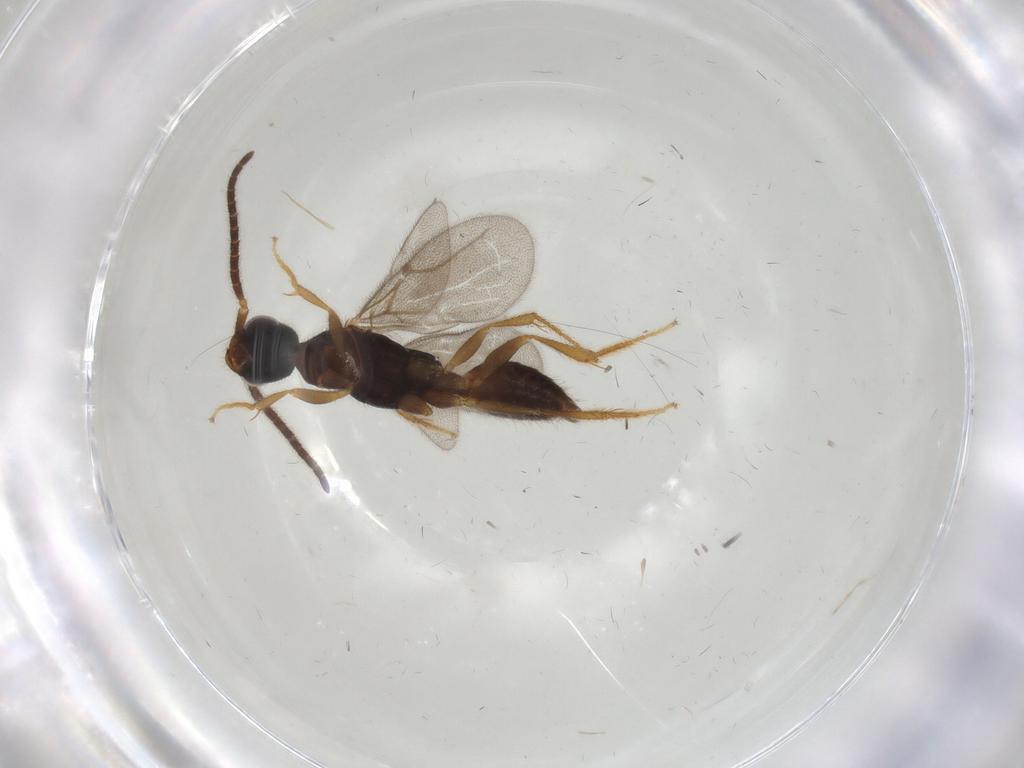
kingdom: Animalia
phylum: Arthropoda
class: Insecta
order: Hymenoptera
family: Bethylidae
